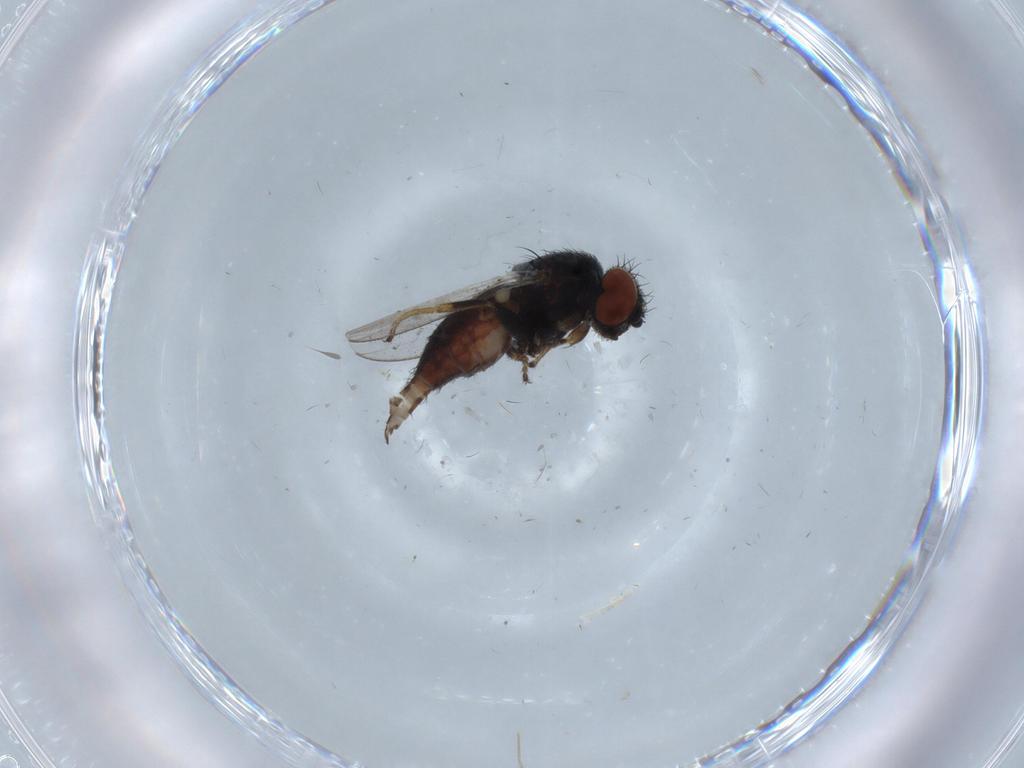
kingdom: Animalia
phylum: Arthropoda
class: Insecta
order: Diptera
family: Milichiidae
